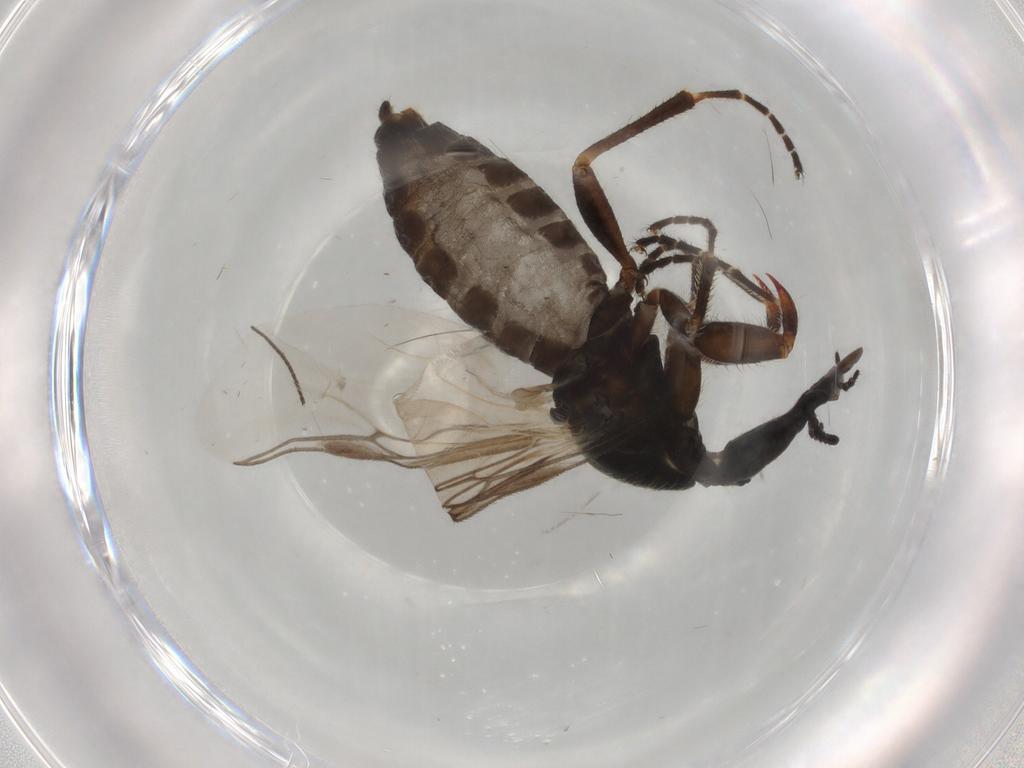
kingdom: Animalia
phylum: Arthropoda
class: Insecta
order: Diptera
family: Bibionidae
